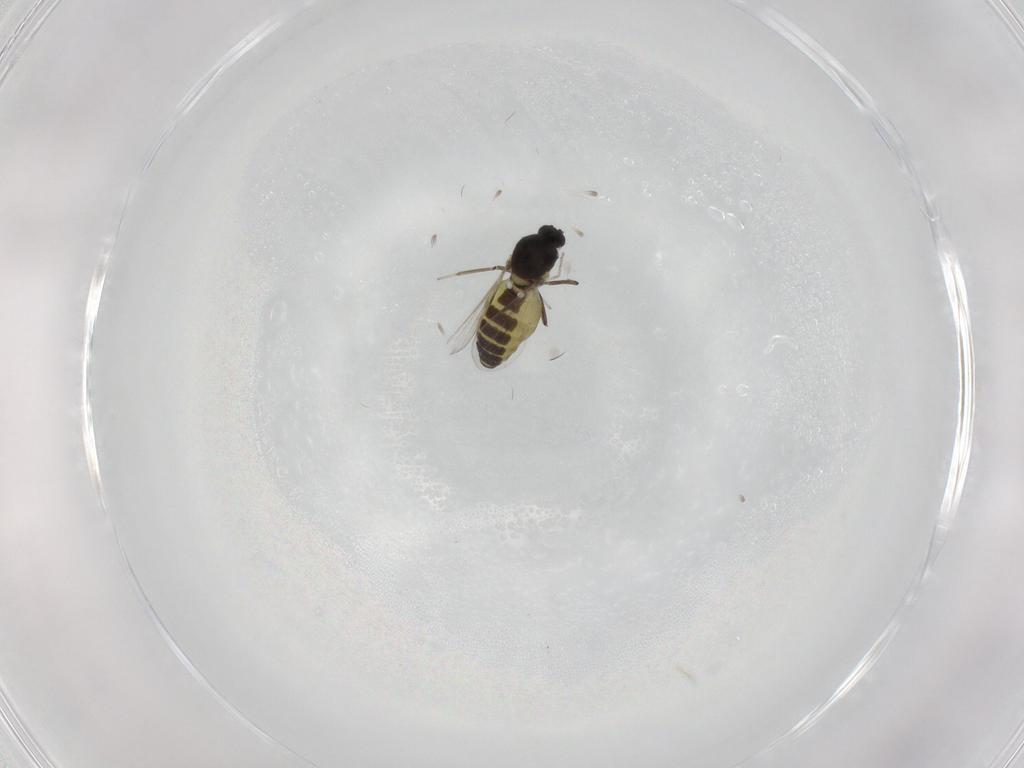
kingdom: Animalia
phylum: Arthropoda
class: Insecta
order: Diptera
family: Ceratopogonidae
